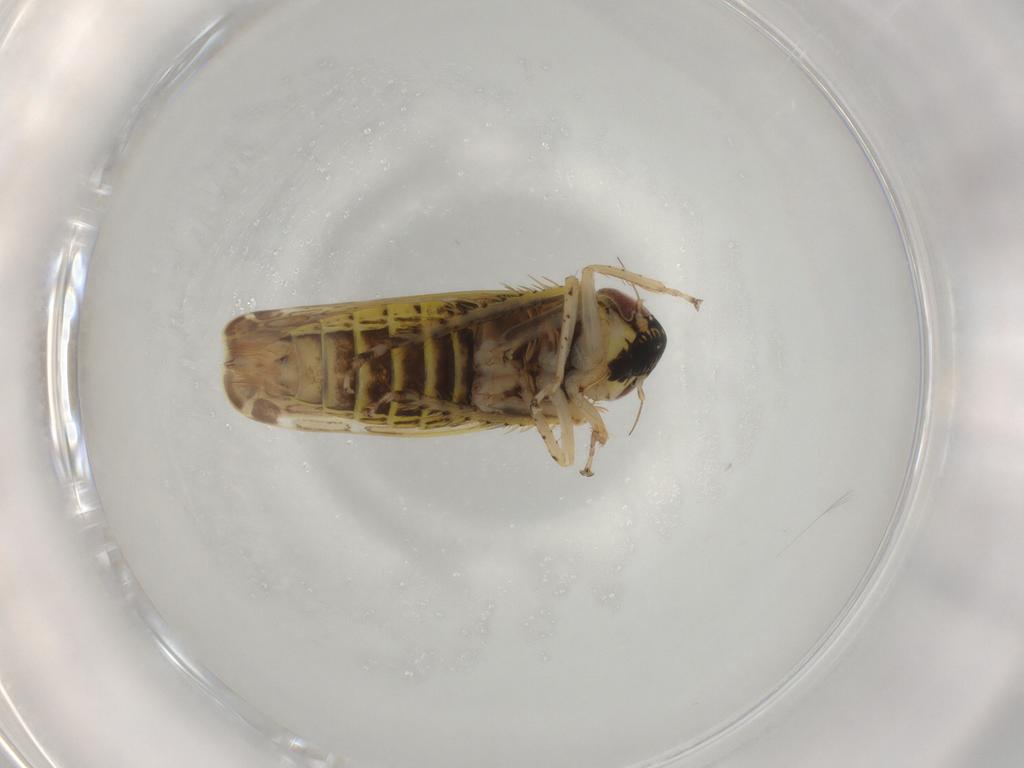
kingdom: Animalia
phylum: Arthropoda
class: Insecta
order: Hemiptera
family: Cicadellidae
